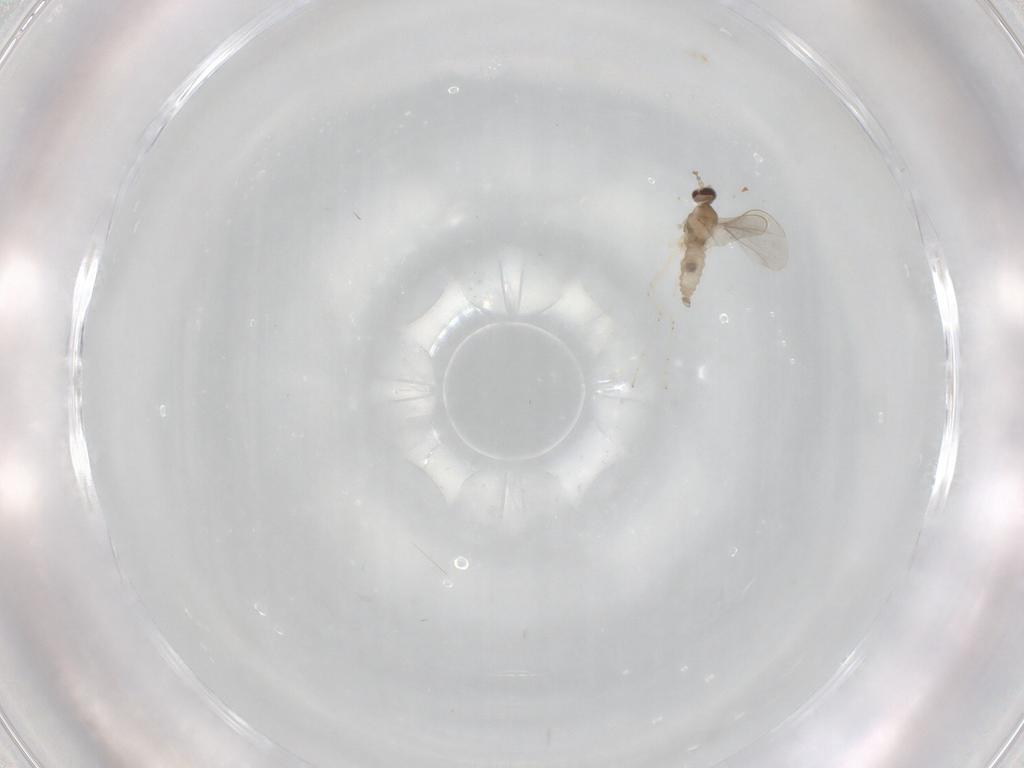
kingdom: Animalia
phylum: Arthropoda
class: Insecta
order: Diptera
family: Cecidomyiidae
